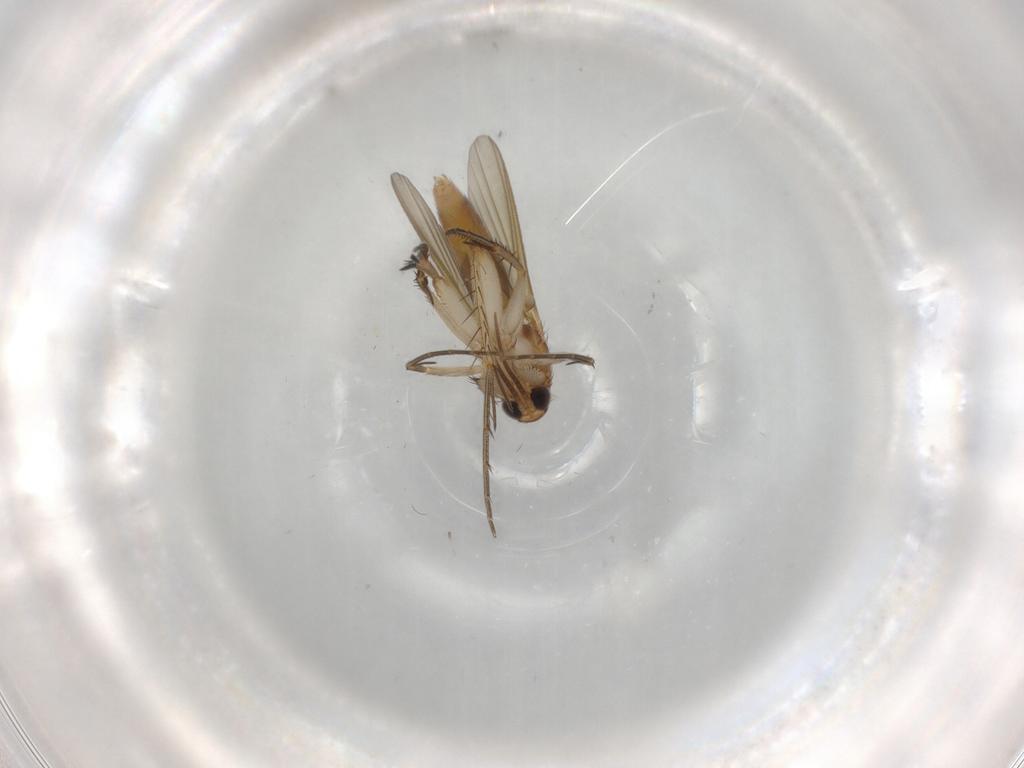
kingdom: Animalia
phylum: Arthropoda
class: Insecta
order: Diptera
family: Mycetophilidae
